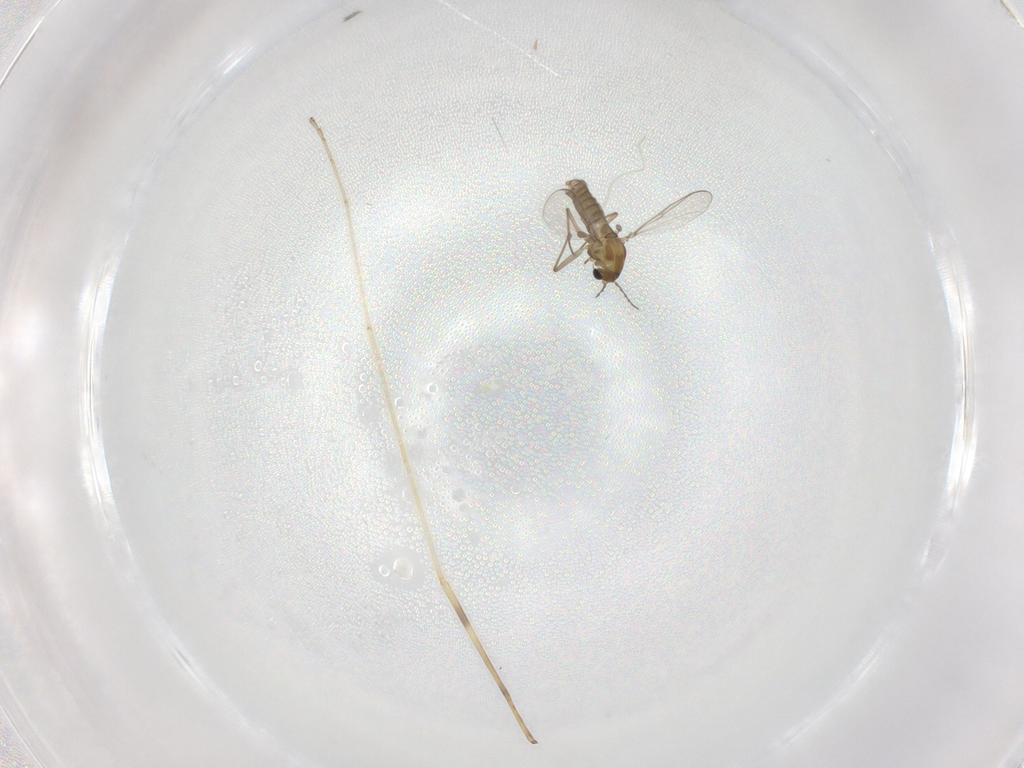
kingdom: Animalia
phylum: Arthropoda
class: Insecta
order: Diptera
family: Chironomidae
